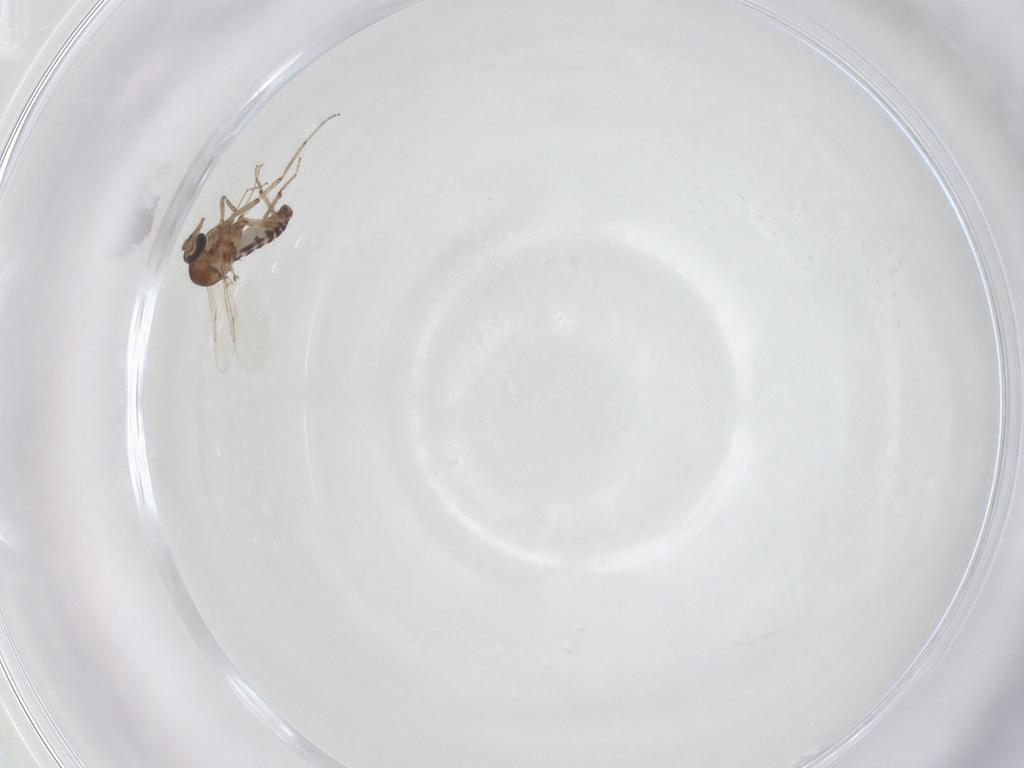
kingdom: Animalia
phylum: Arthropoda
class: Insecta
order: Diptera
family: Ceratopogonidae
